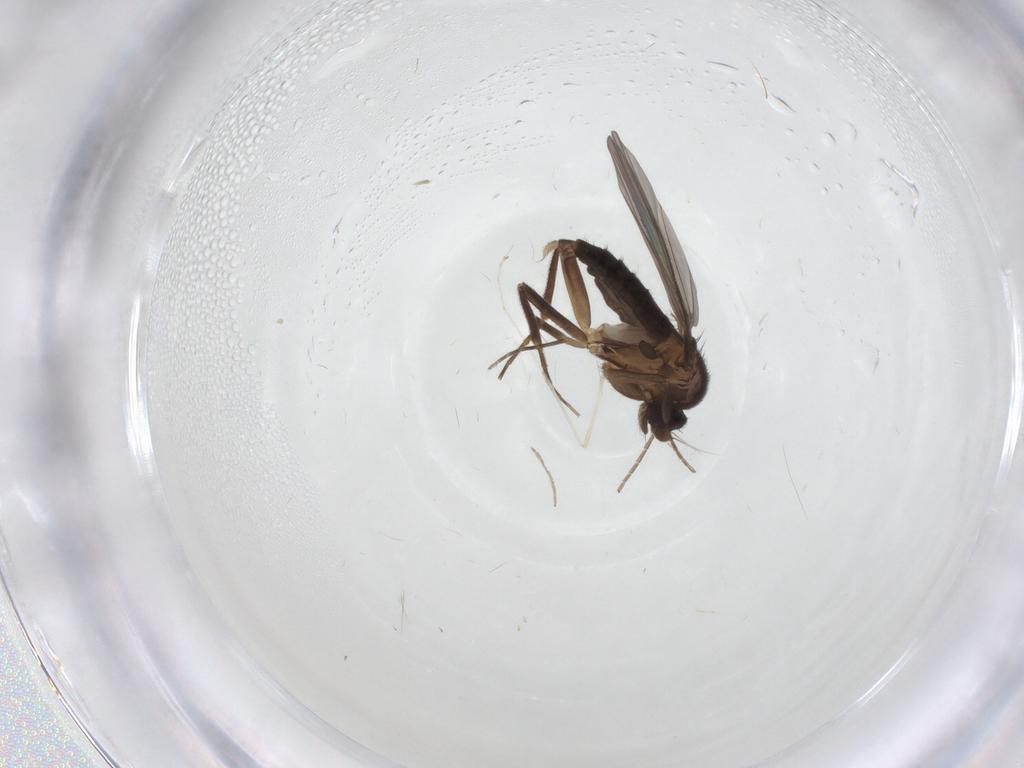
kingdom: Animalia
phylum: Arthropoda
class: Insecta
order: Diptera
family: Chironomidae
